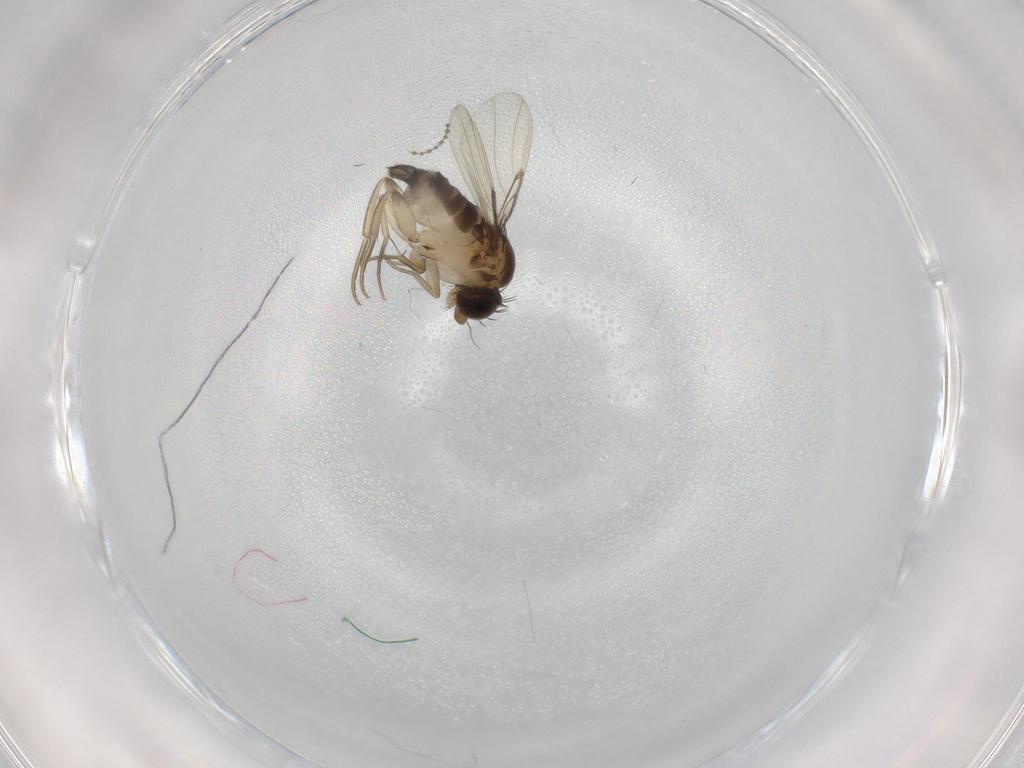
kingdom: Animalia
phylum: Arthropoda
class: Insecta
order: Diptera
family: Phoridae
